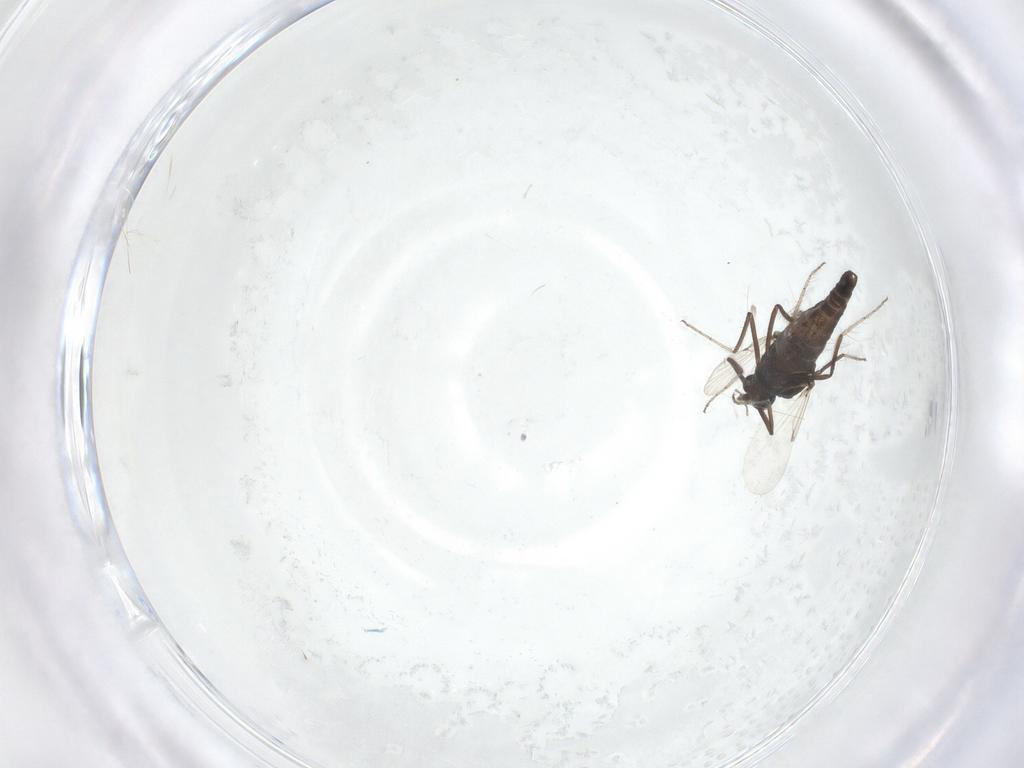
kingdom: Animalia
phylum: Arthropoda
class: Insecta
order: Diptera
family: Ceratopogonidae
